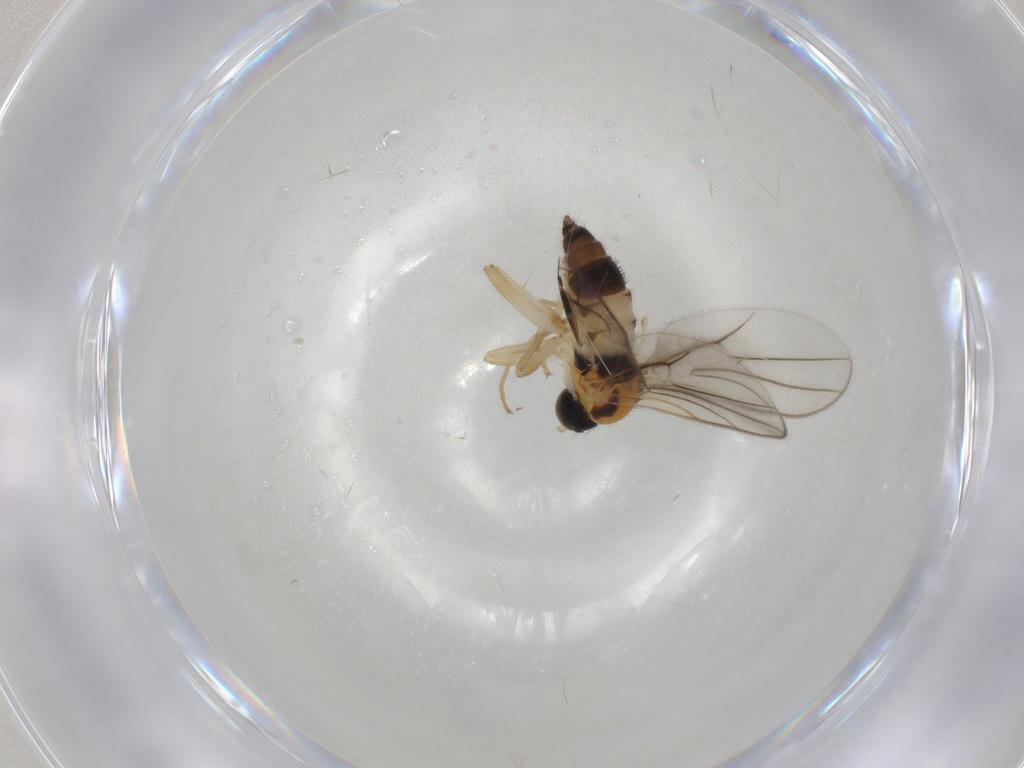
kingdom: Animalia
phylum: Arthropoda
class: Insecta
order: Diptera
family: Hybotidae
